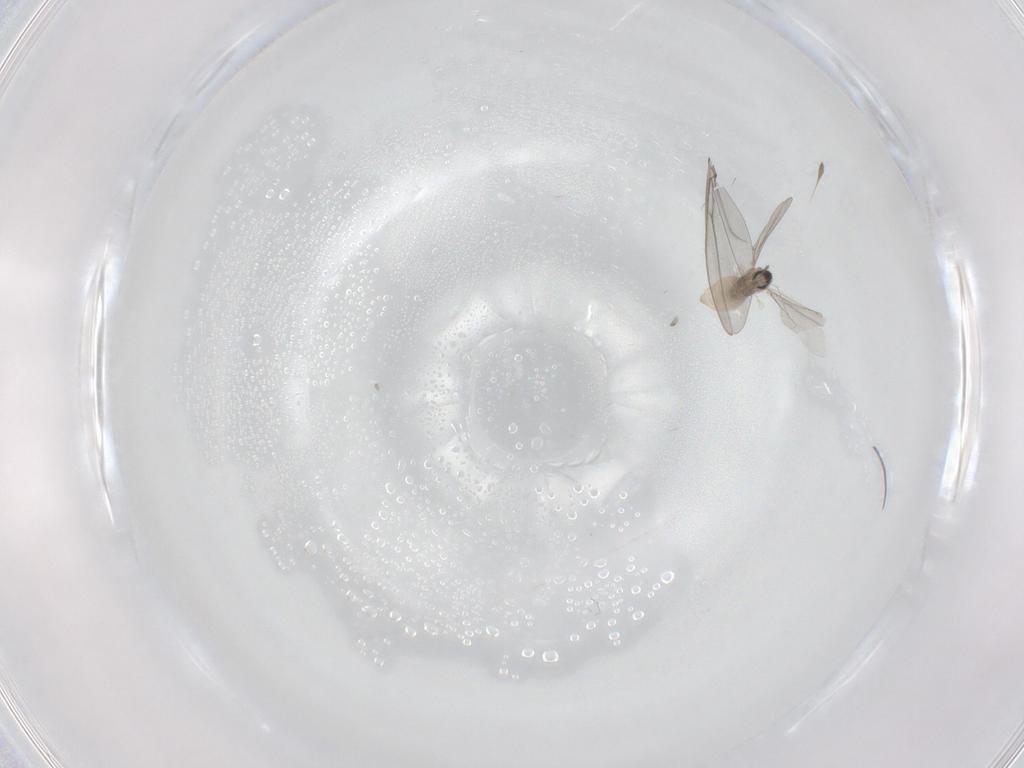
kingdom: Animalia
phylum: Arthropoda
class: Insecta
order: Diptera
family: Cecidomyiidae
